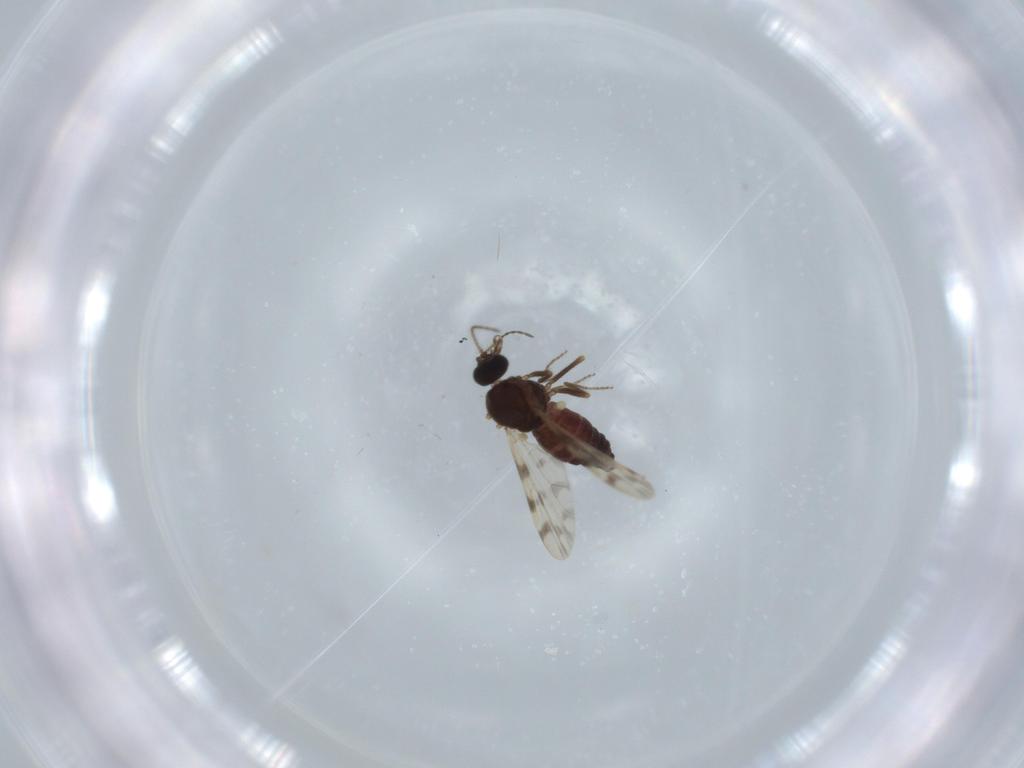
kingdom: Animalia
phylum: Arthropoda
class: Insecta
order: Diptera
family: Ceratopogonidae
